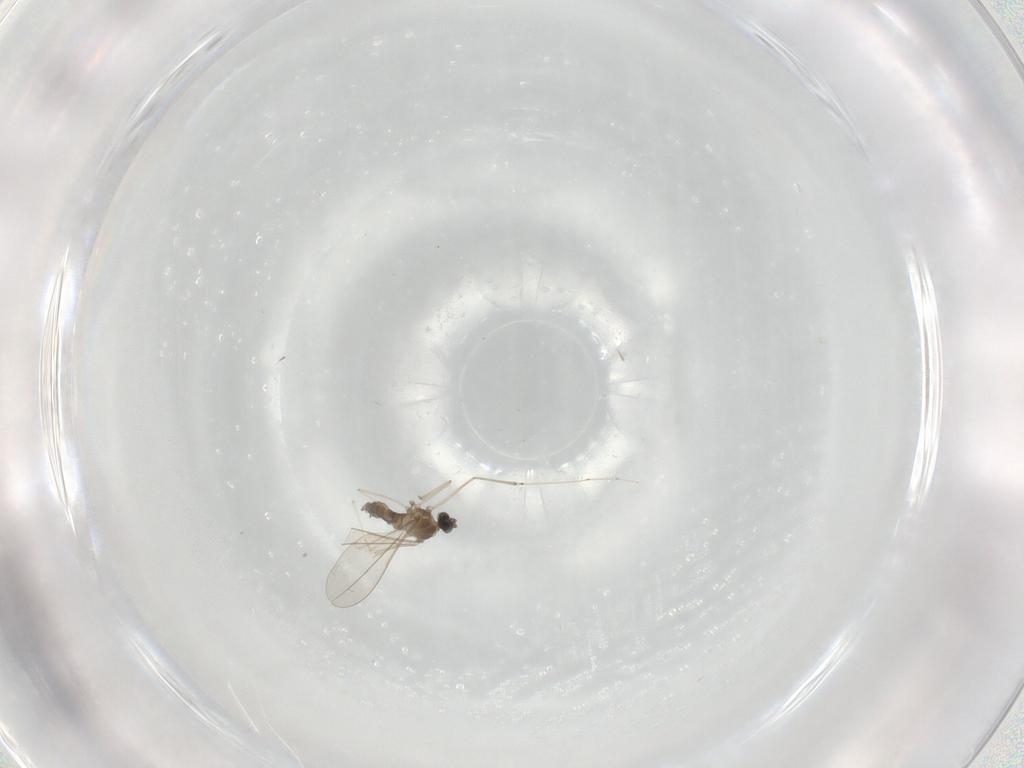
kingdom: Animalia
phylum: Arthropoda
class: Insecta
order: Diptera
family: Cecidomyiidae
